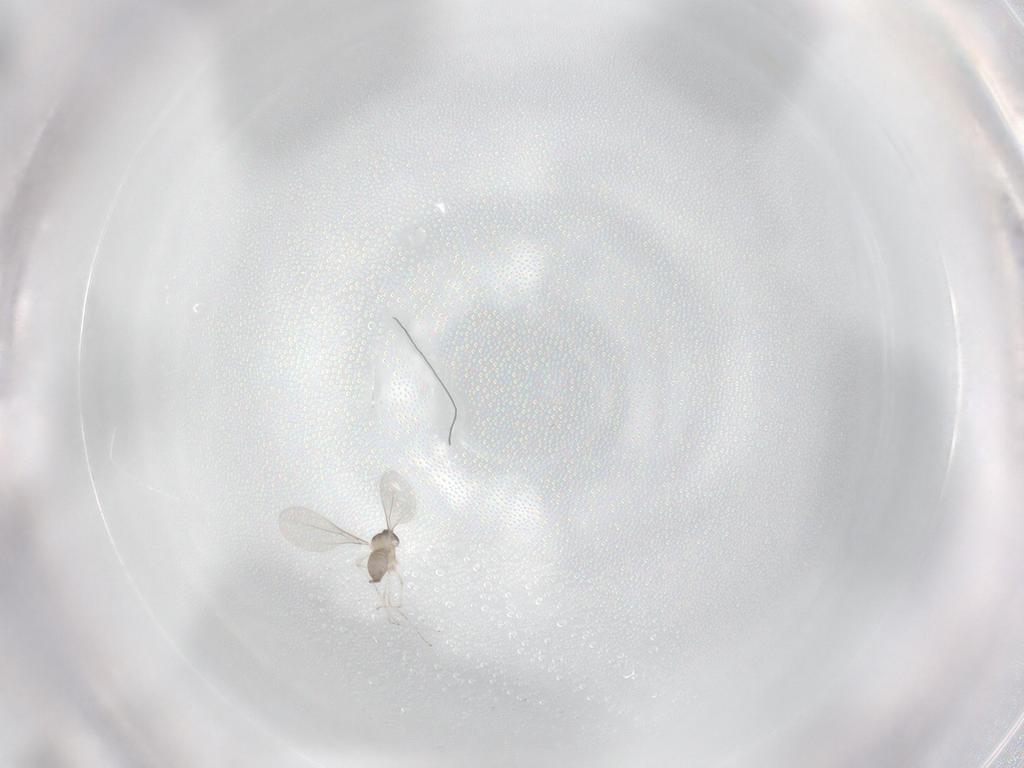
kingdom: Animalia
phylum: Arthropoda
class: Insecta
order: Diptera
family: Cecidomyiidae
